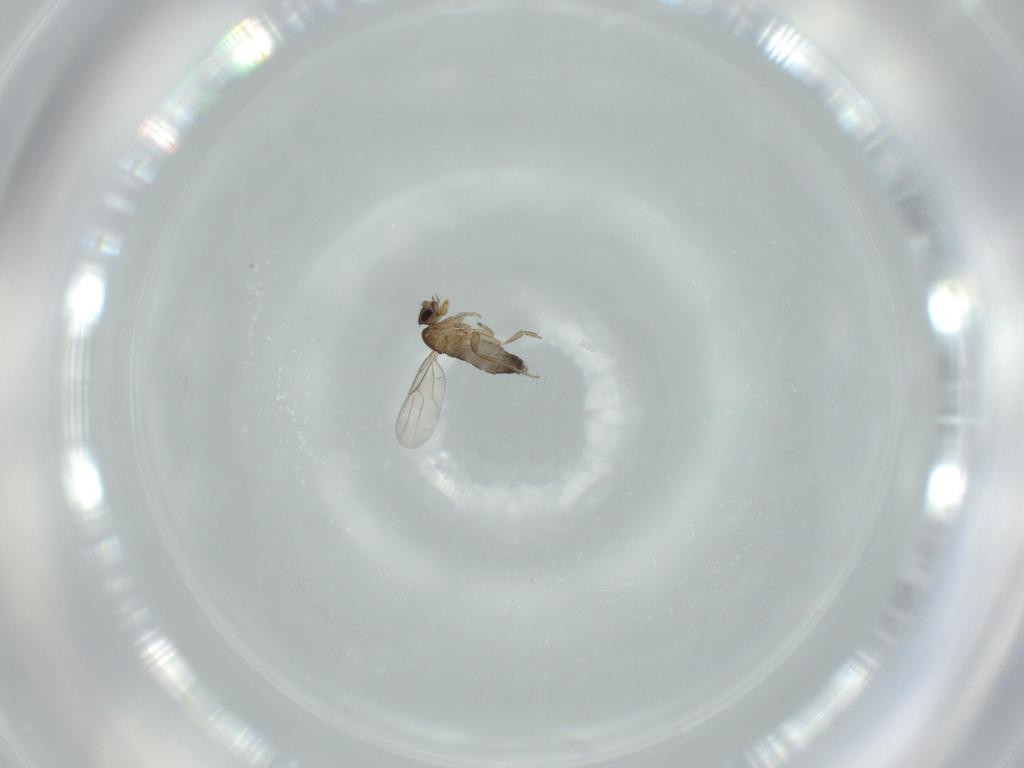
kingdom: Animalia
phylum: Arthropoda
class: Insecta
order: Diptera
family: Phoridae
